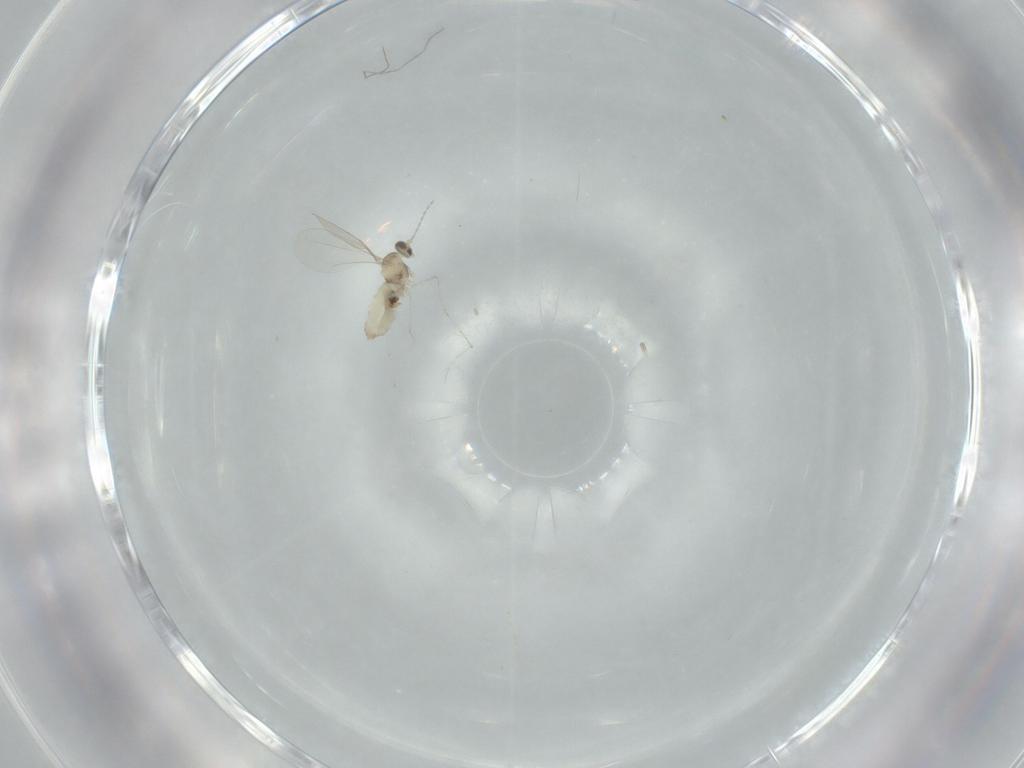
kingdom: Animalia
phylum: Arthropoda
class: Insecta
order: Diptera
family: Cecidomyiidae
